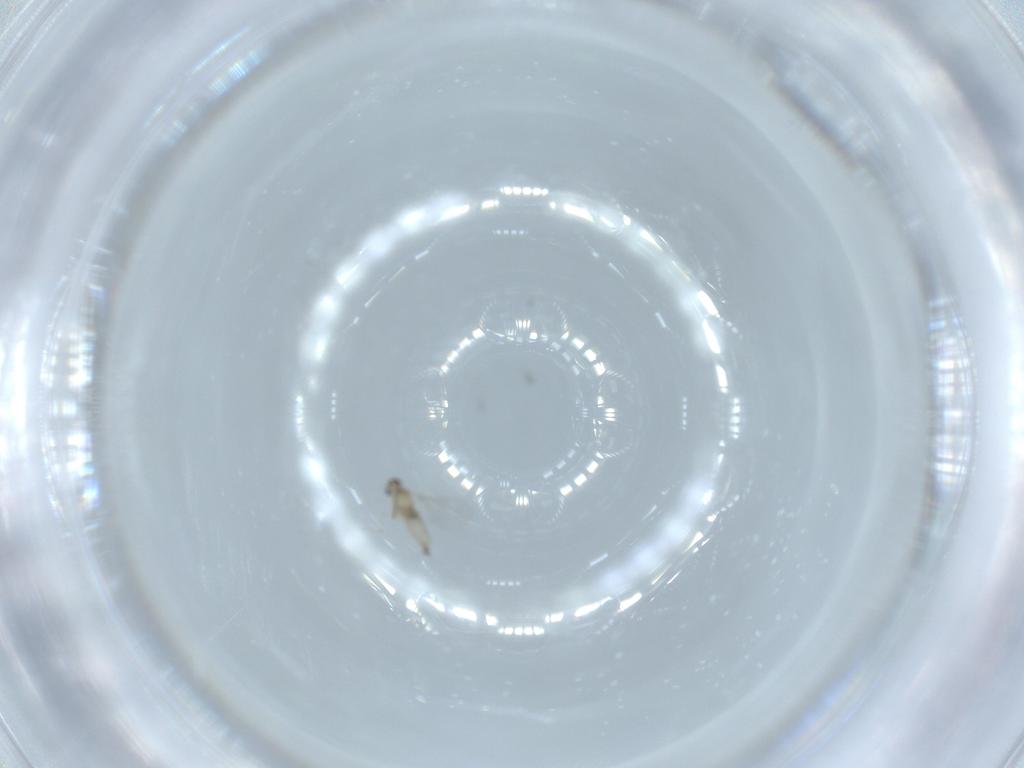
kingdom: Animalia
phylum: Arthropoda
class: Insecta
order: Diptera
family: Cecidomyiidae
